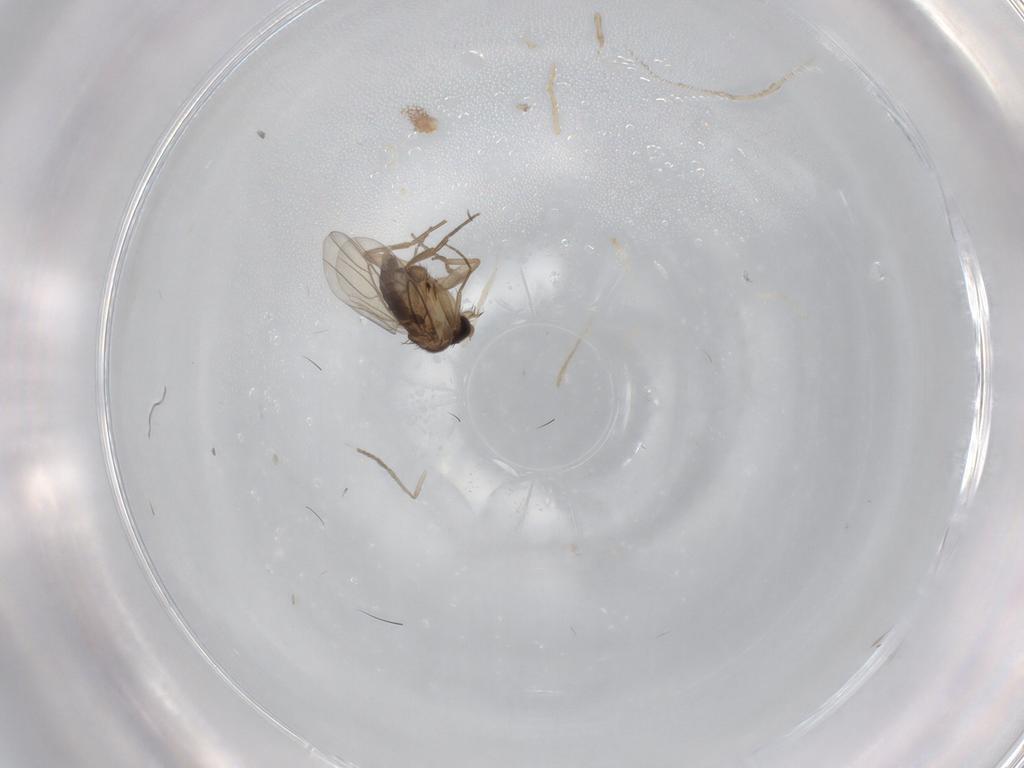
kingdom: Animalia
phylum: Arthropoda
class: Insecta
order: Diptera
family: Chironomidae
